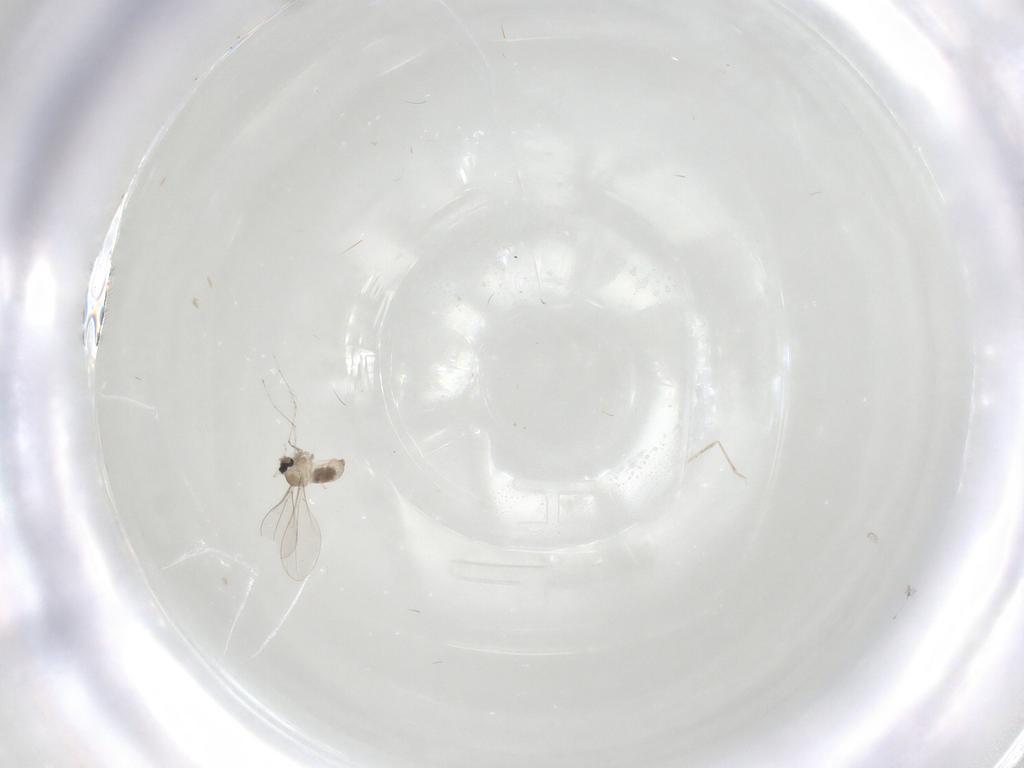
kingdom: Animalia
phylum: Arthropoda
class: Insecta
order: Diptera
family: Cecidomyiidae
